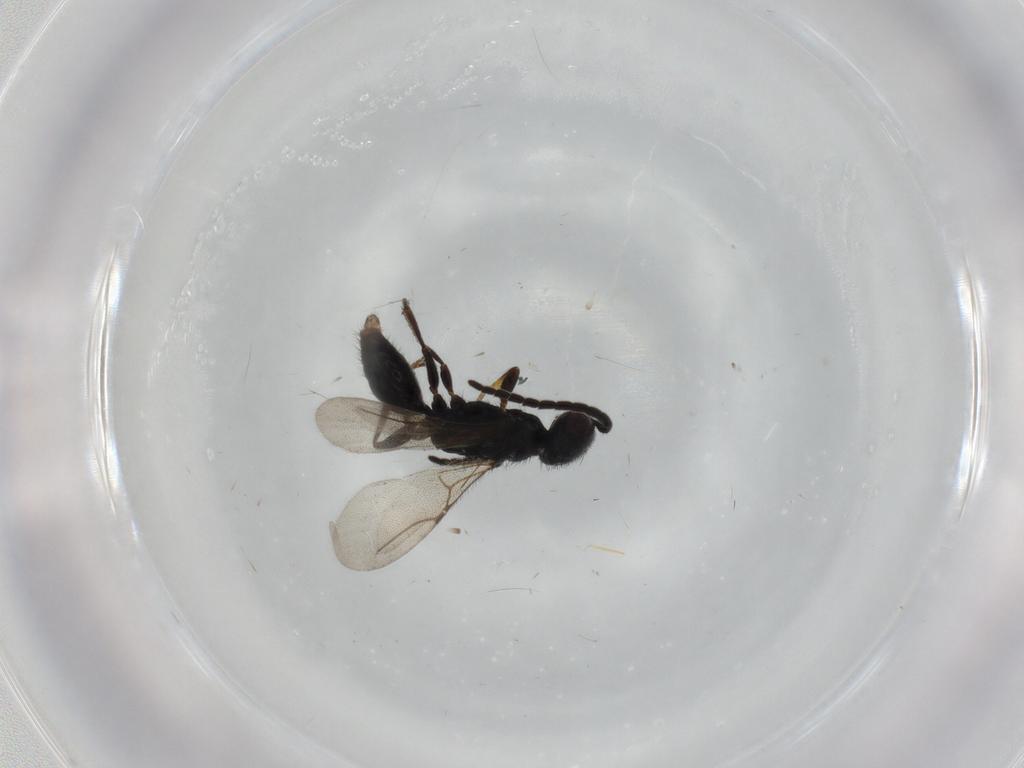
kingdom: Animalia
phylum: Arthropoda
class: Insecta
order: Hymenoptera
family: Bethylidae
